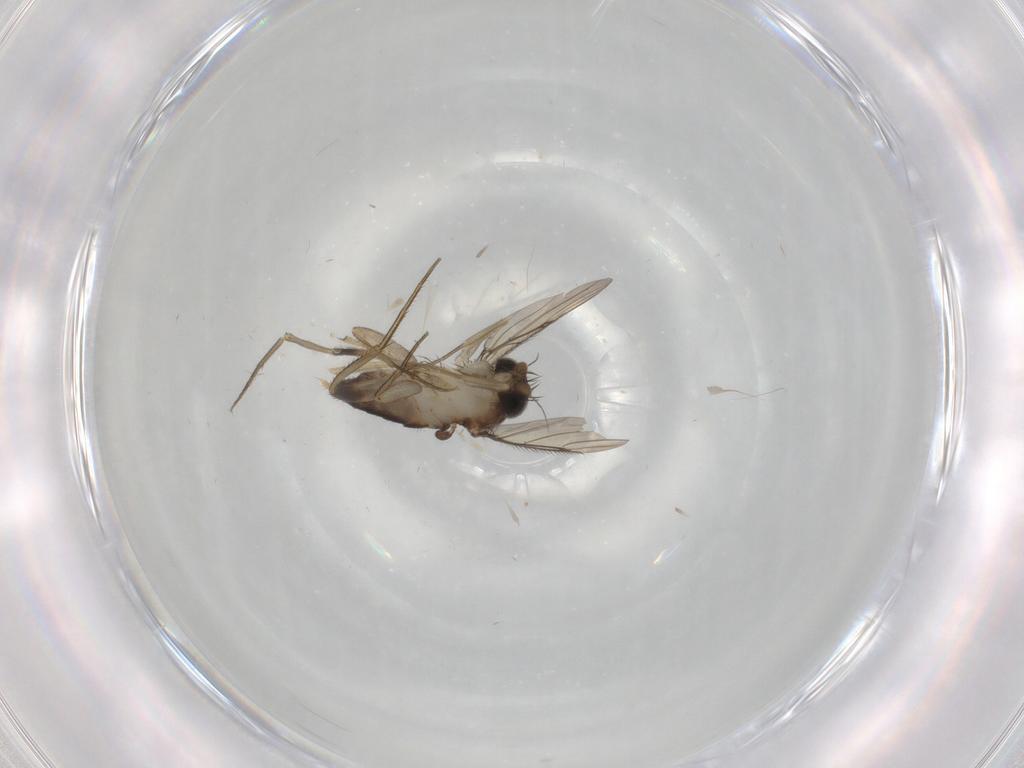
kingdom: Animalia
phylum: Arthropoda
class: Insecta
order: Diptera
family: Phoridae
